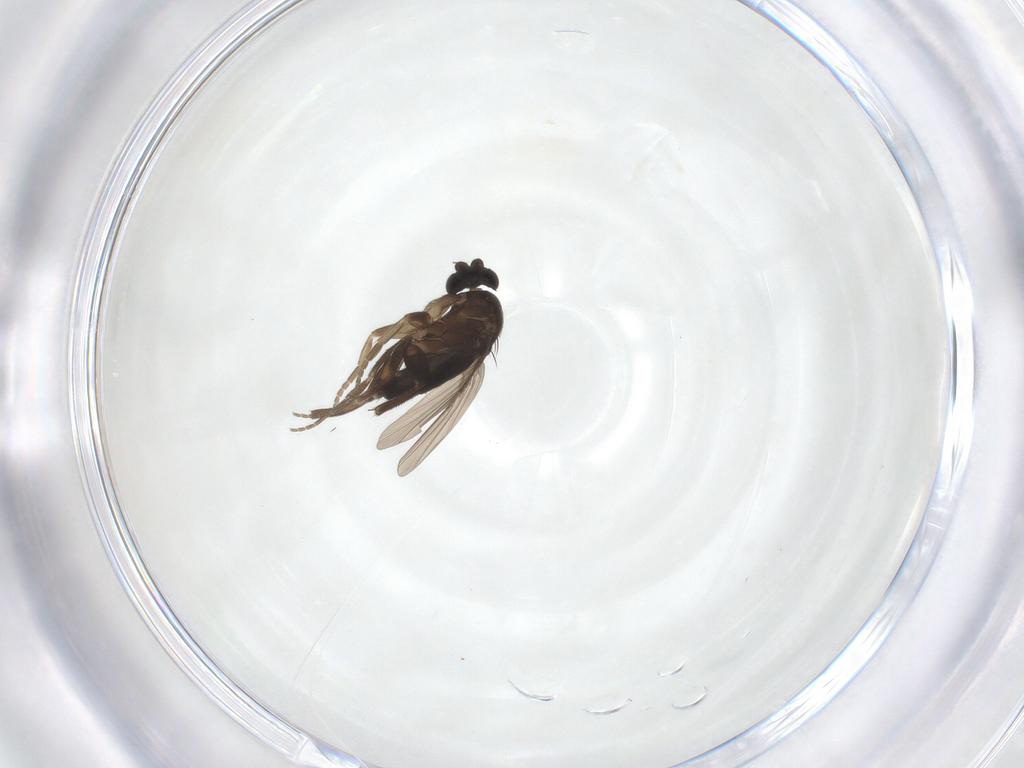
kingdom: Animalia
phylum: Arthropoda
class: Insecta
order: Diptera
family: Phoridae
